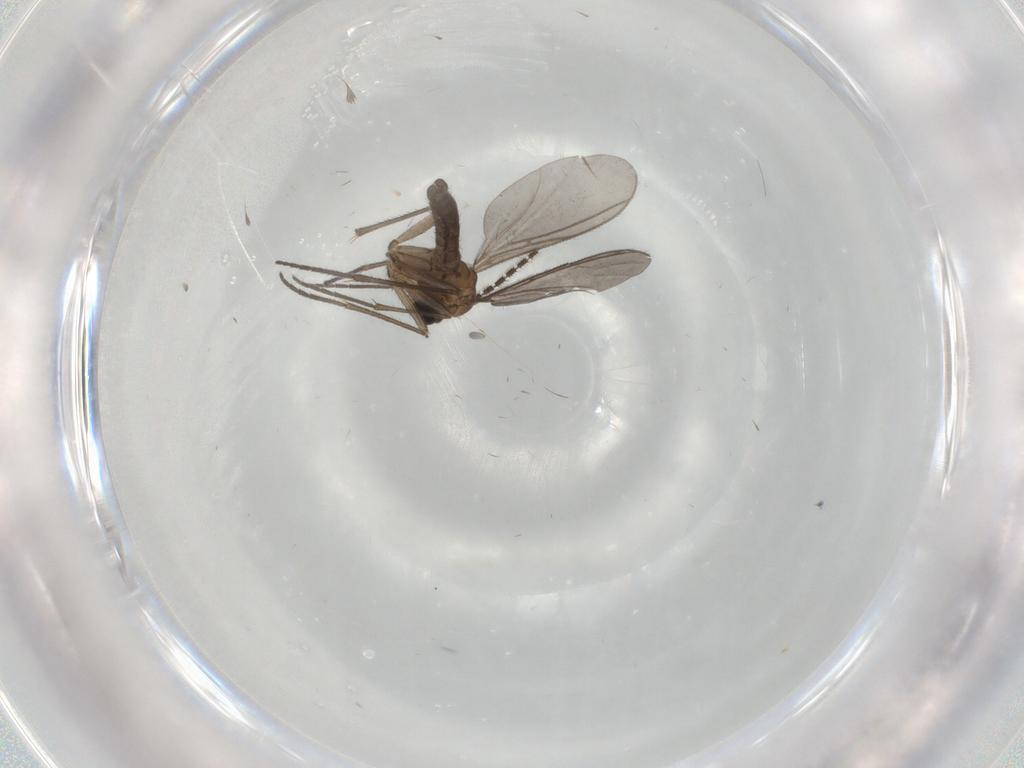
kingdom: Animalia
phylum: Arthropoda
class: Insecta
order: Diptera
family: Sciaridae
